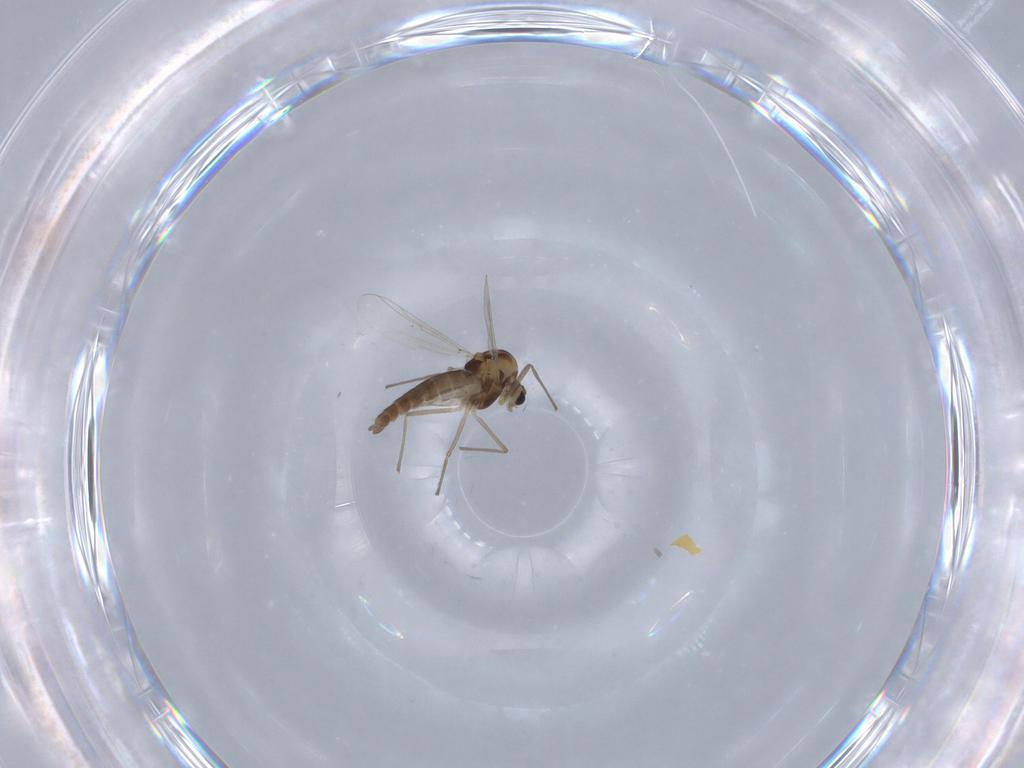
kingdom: Animalia
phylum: Arthropoda
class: Insecta
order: Diptera
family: Chironomidae
